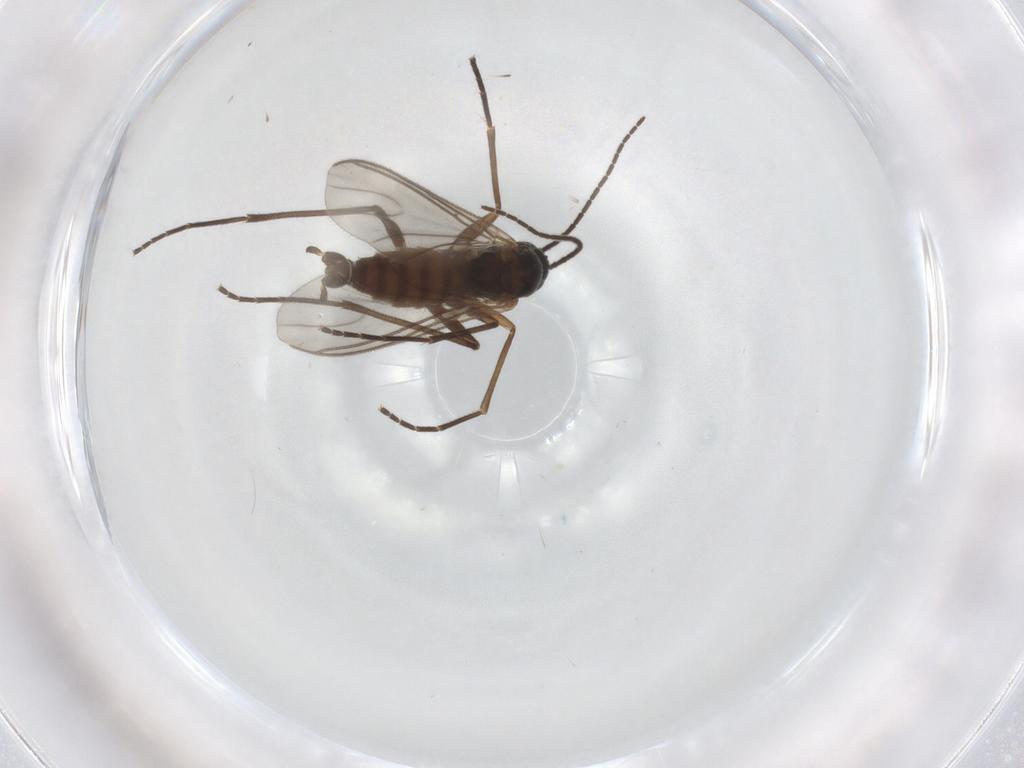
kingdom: Animalia
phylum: Arthropoda
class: Insecta
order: Diptera
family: Sciaridae
